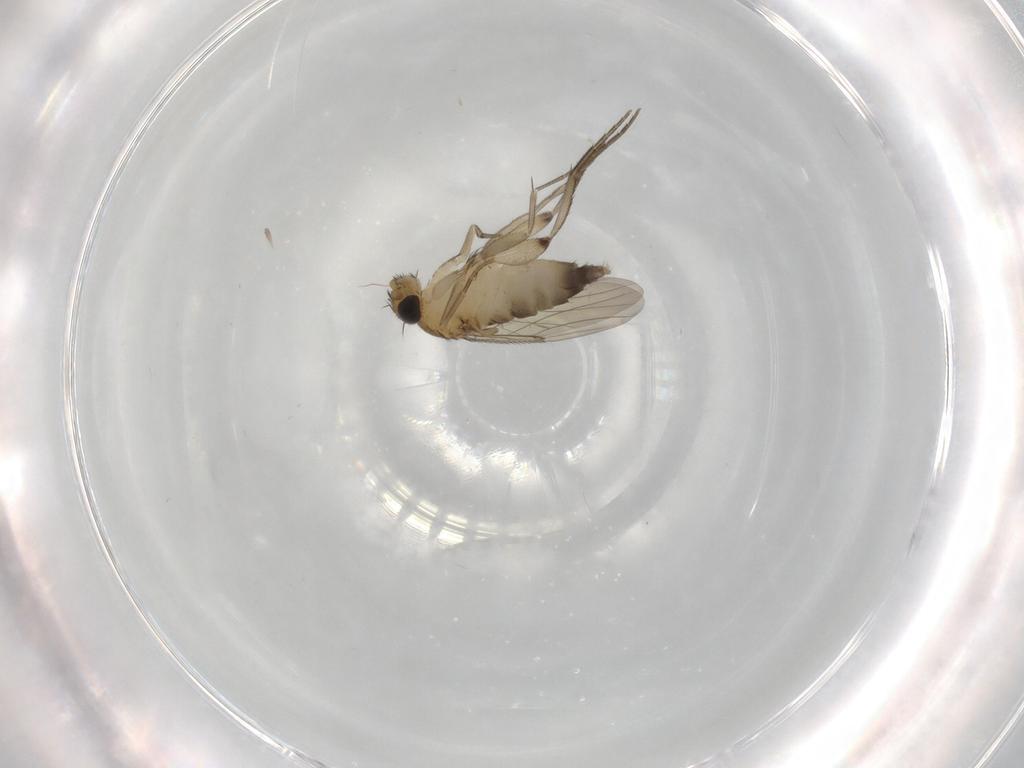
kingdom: Animalia
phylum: Arthropoda
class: Insecta
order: Diptera
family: Phoridae
